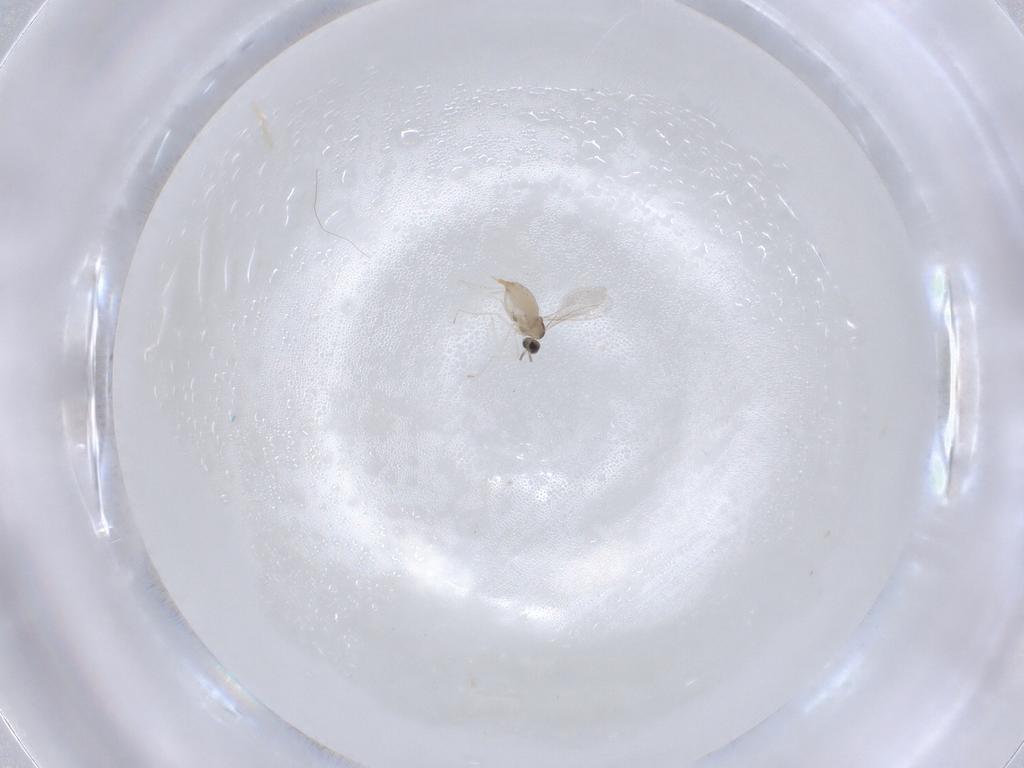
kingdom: Animalia
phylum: Arthropoda
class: Insecta
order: Diptera
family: Cecidomyiidae
